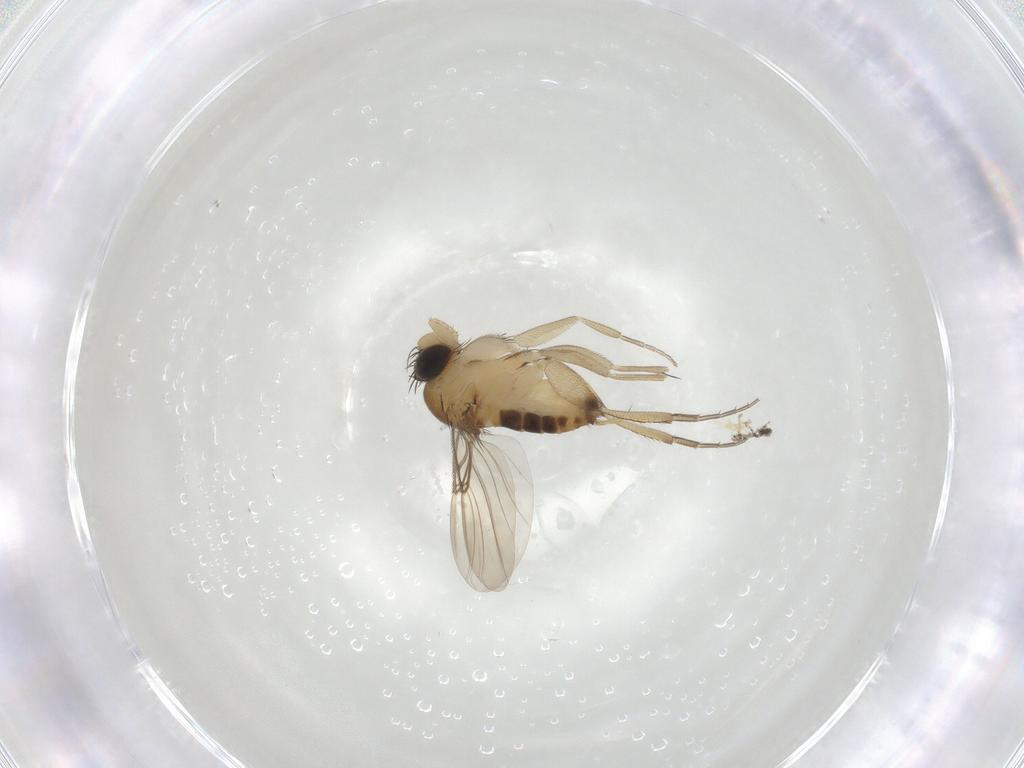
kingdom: Animalia
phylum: Arthropoda
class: Insecta
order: Diptera
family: Phoridae
